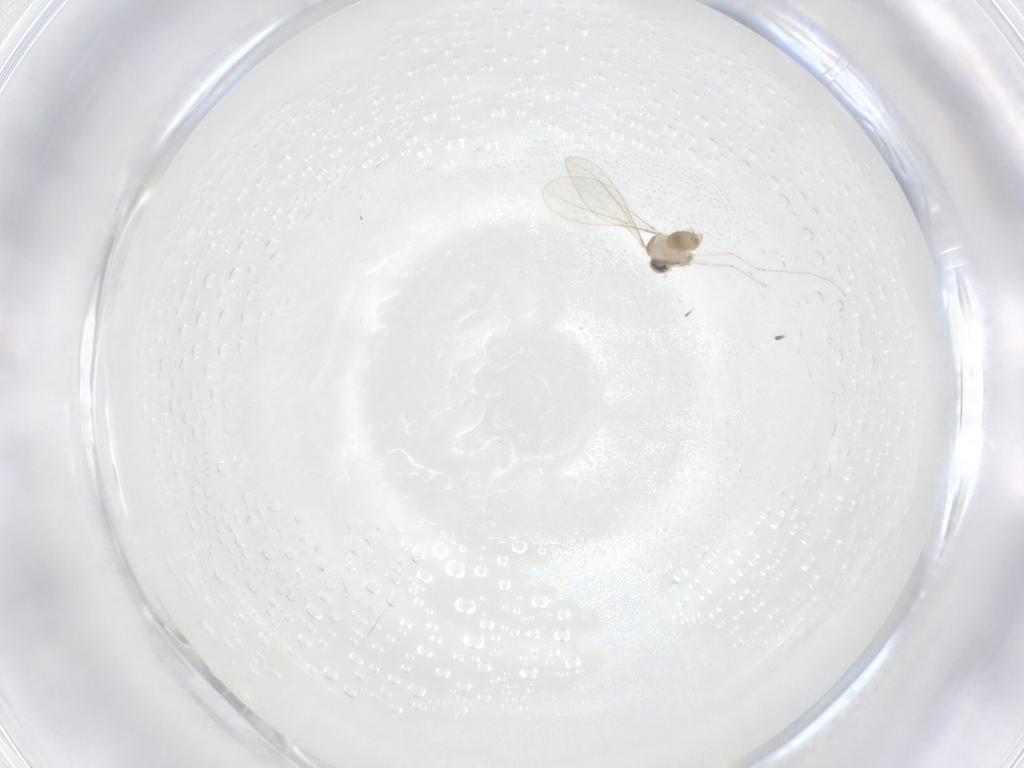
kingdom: Animalia
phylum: Arthropoda
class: Insecta
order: Diptera
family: Cecidomyiidae
